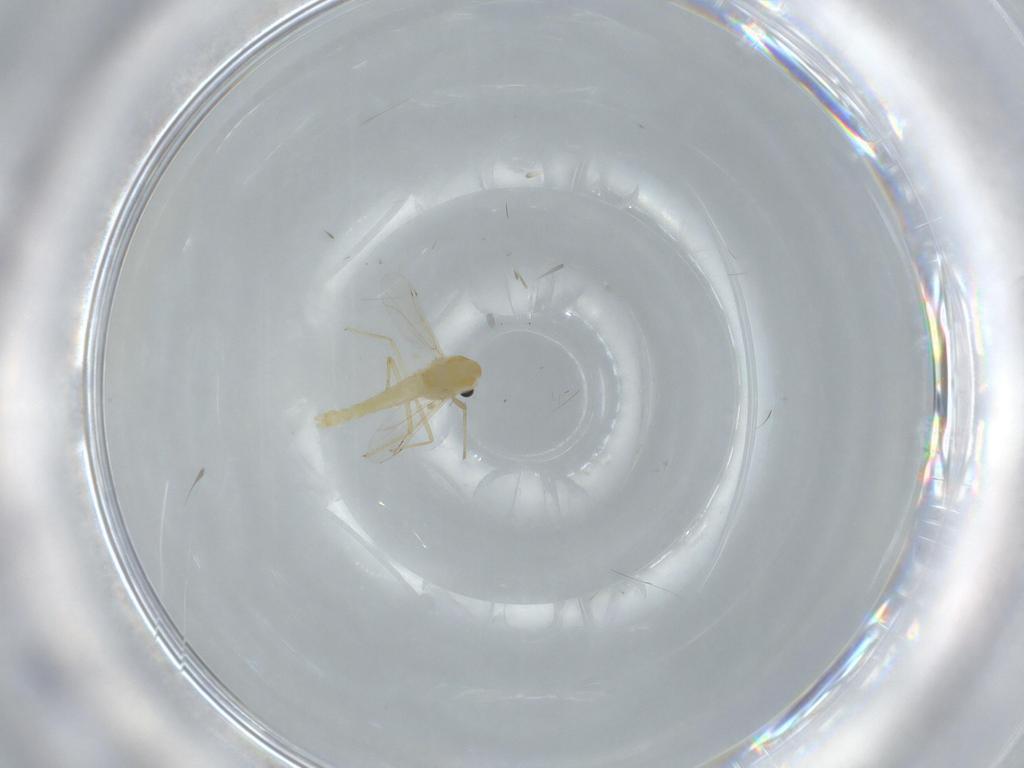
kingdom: Animalia
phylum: Arthropoda
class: Insecta
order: Diptera
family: Chironomidae
